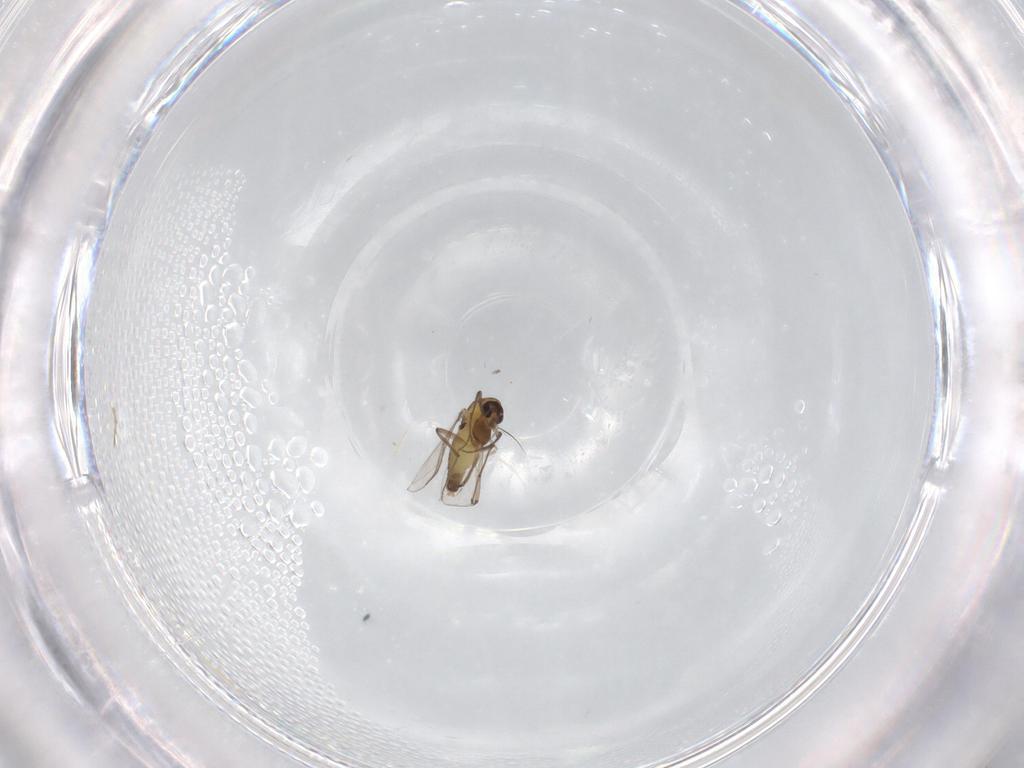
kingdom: Animalia
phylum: Arthropoda
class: Insecta
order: Diptera
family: Chironomidae
